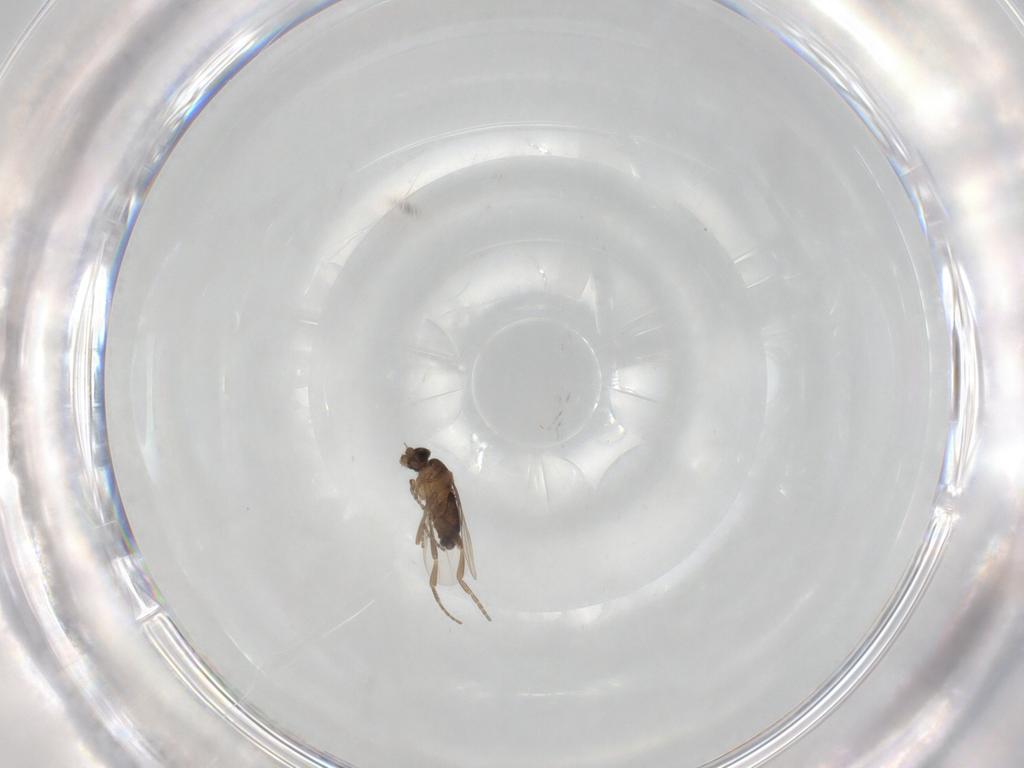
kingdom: Animalia
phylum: Arthropoda
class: Insecta
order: Diptera
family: Phoridae
